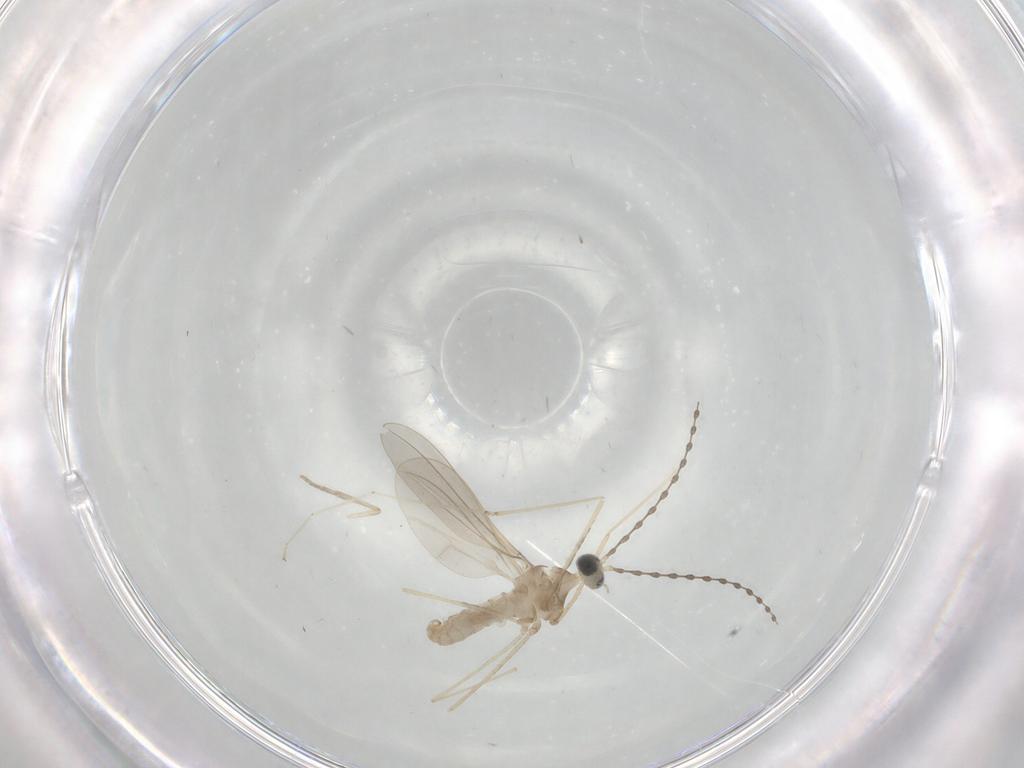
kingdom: Animalia
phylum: Arthropoda
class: Insecta
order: Diptera
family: Cecidomyiidae
